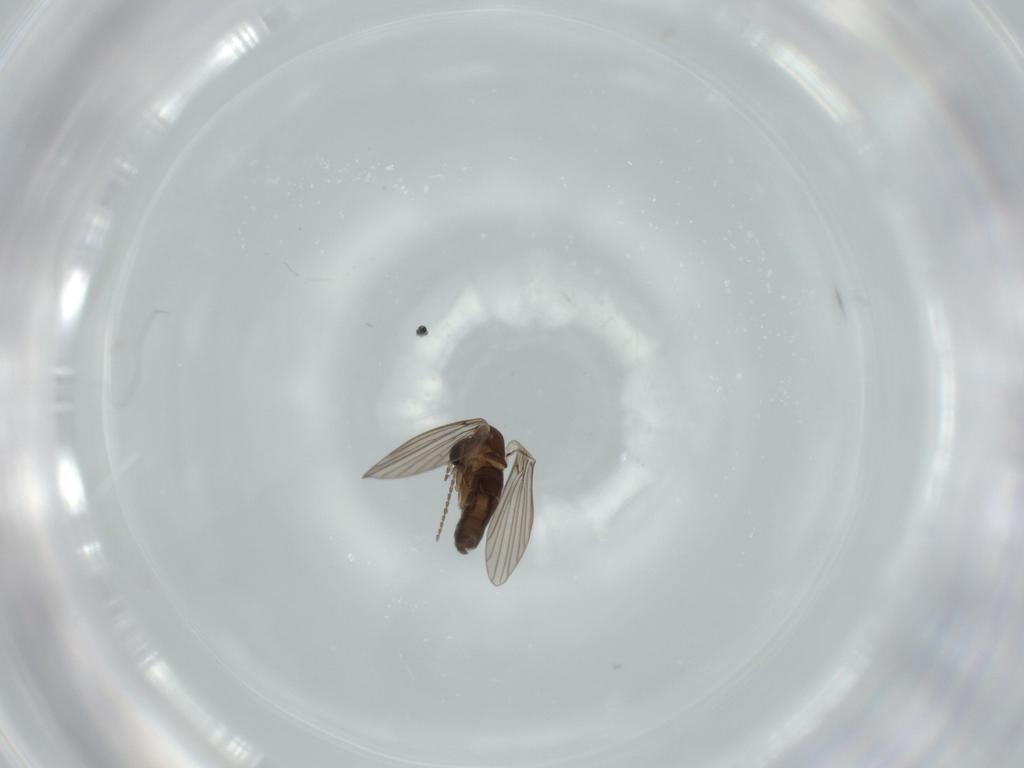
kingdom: Animalia
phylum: Arthropoda
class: Insecta
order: Diptera
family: Psychodidae
